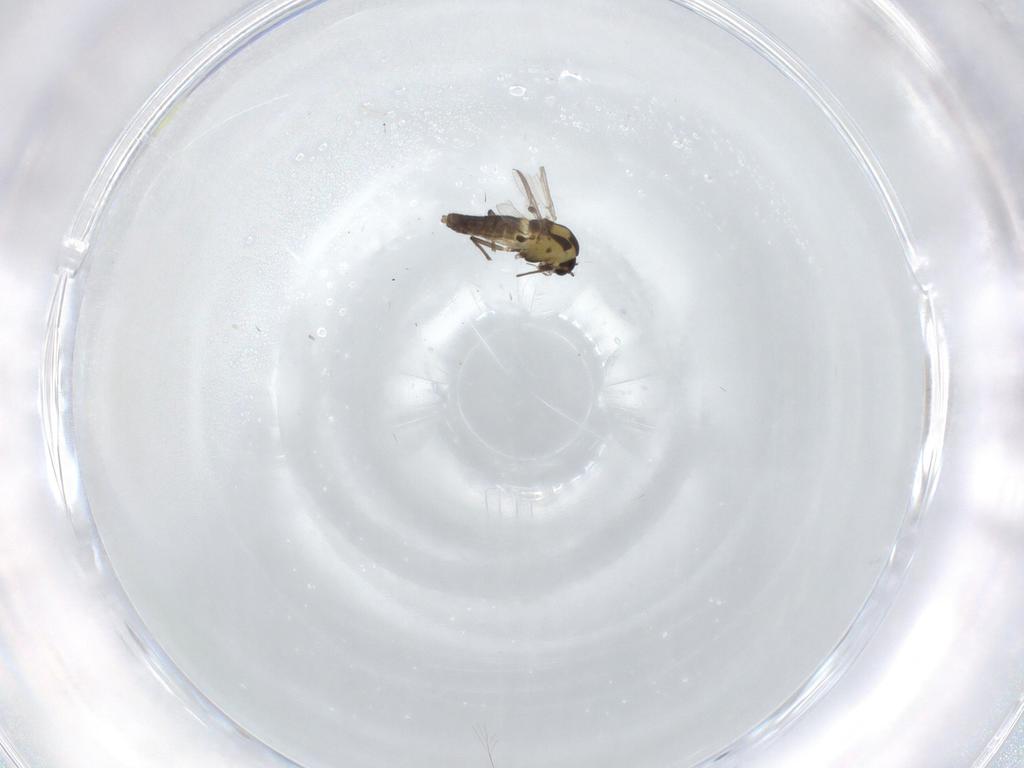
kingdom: Animalia
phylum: Arthropoda
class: Insecta
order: Diptera
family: Chironomidae
